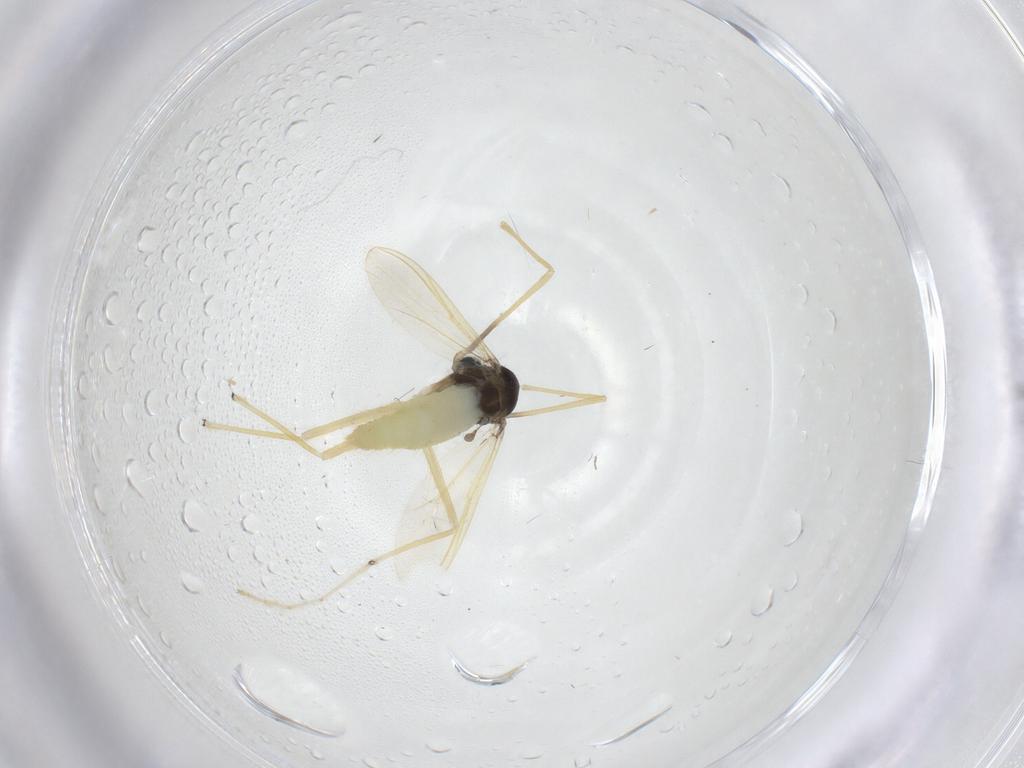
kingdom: Animalia
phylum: Arthropoda
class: Insecta
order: Diptera
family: Chironomidae
